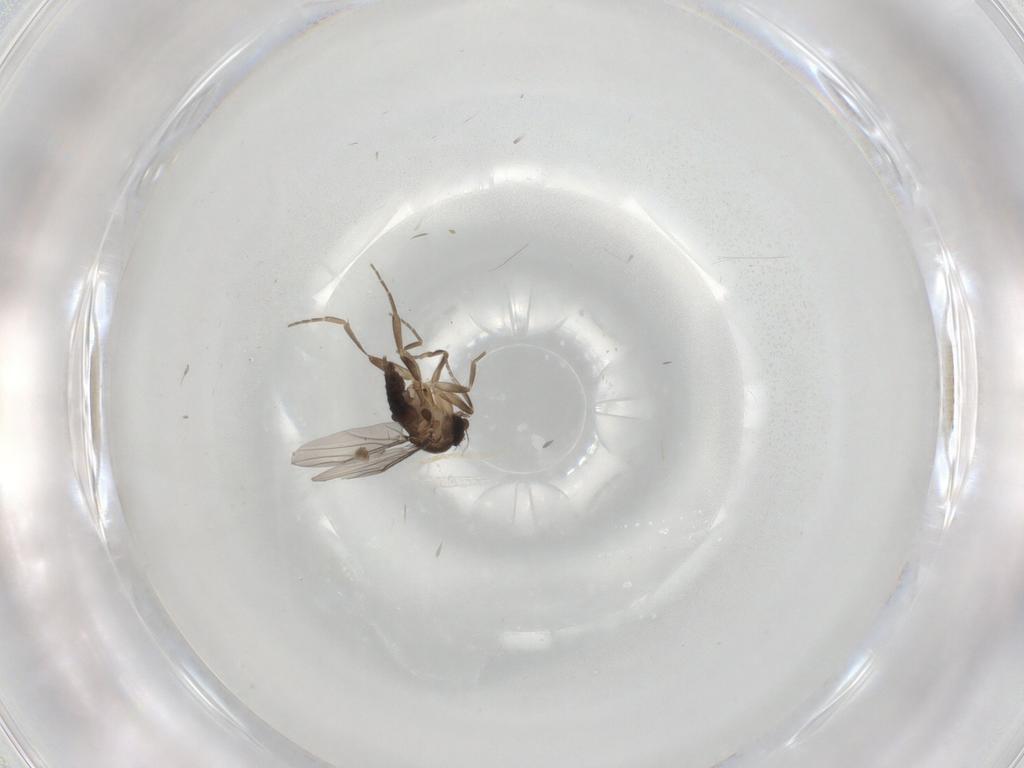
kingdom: Animalia
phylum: Arthropoda
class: Insecta
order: Diptera
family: Phoridae
